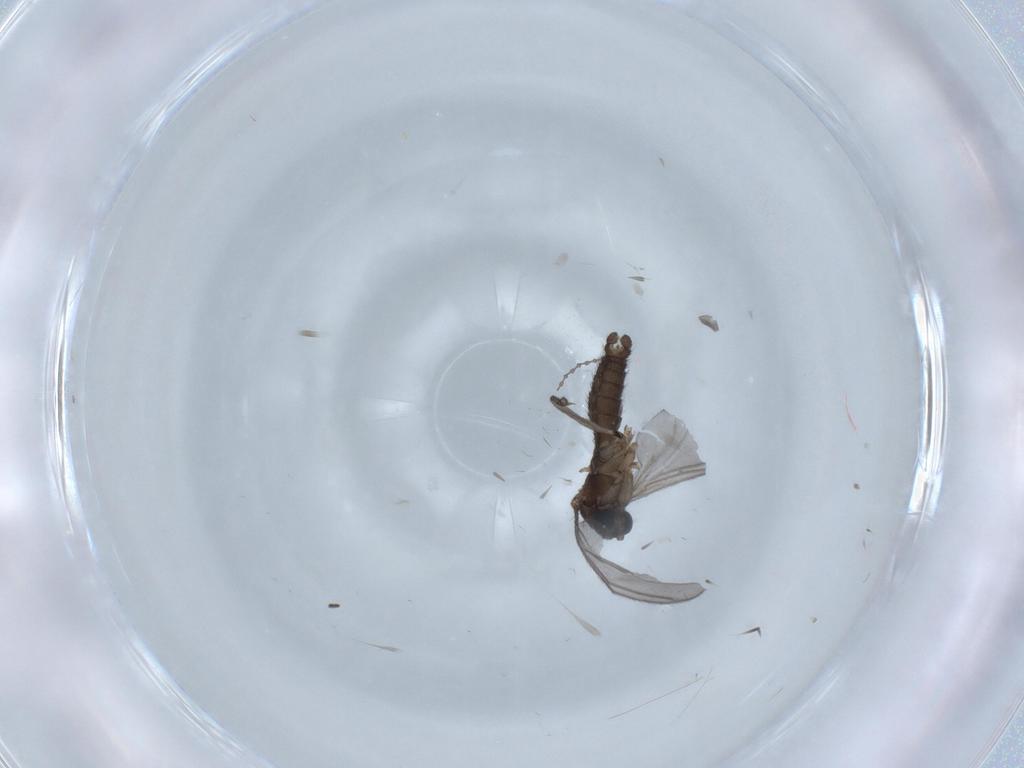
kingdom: Animalia
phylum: Arthropoda
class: Insecta
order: Diptera
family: Cecidomyiidae
